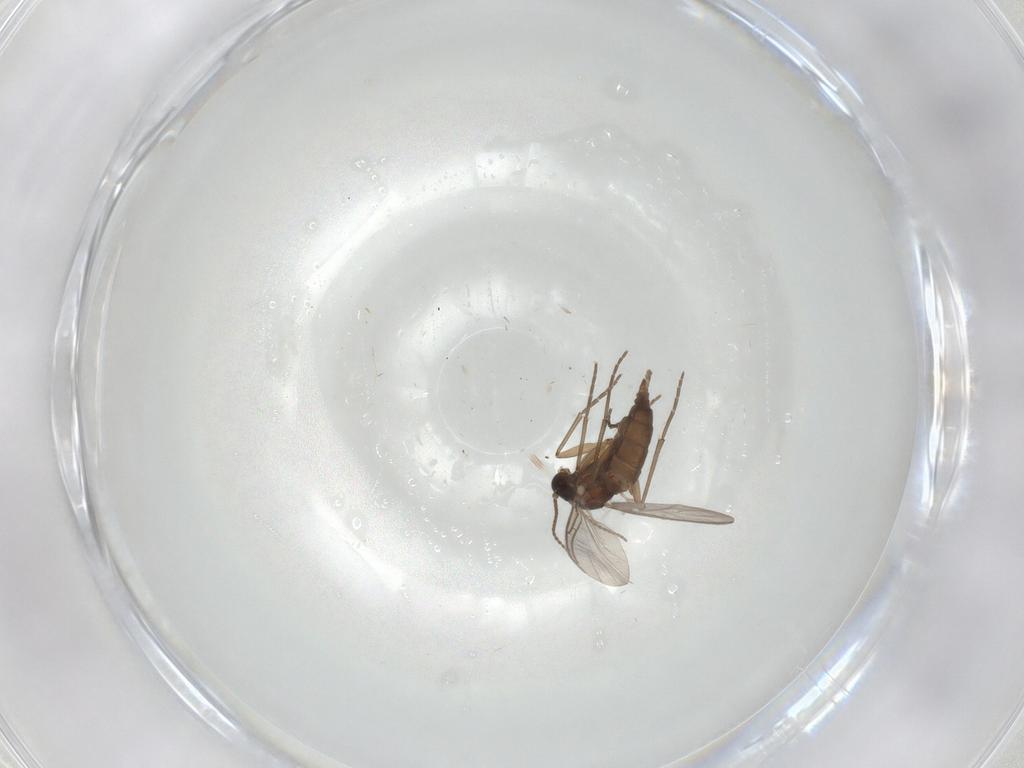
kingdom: Animalia
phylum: Arthropoda
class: Insecta
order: Diptera
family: Sciaridae
